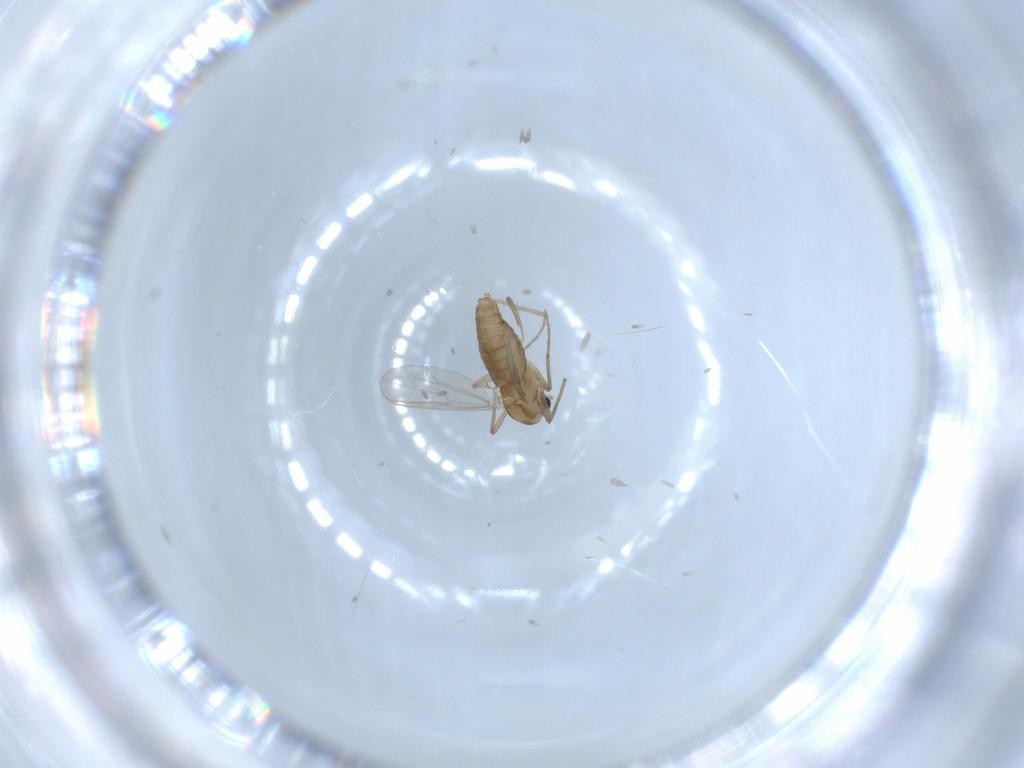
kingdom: Animalia
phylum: Arthropoda
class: Insecta
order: Diptera
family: Chironomidae
